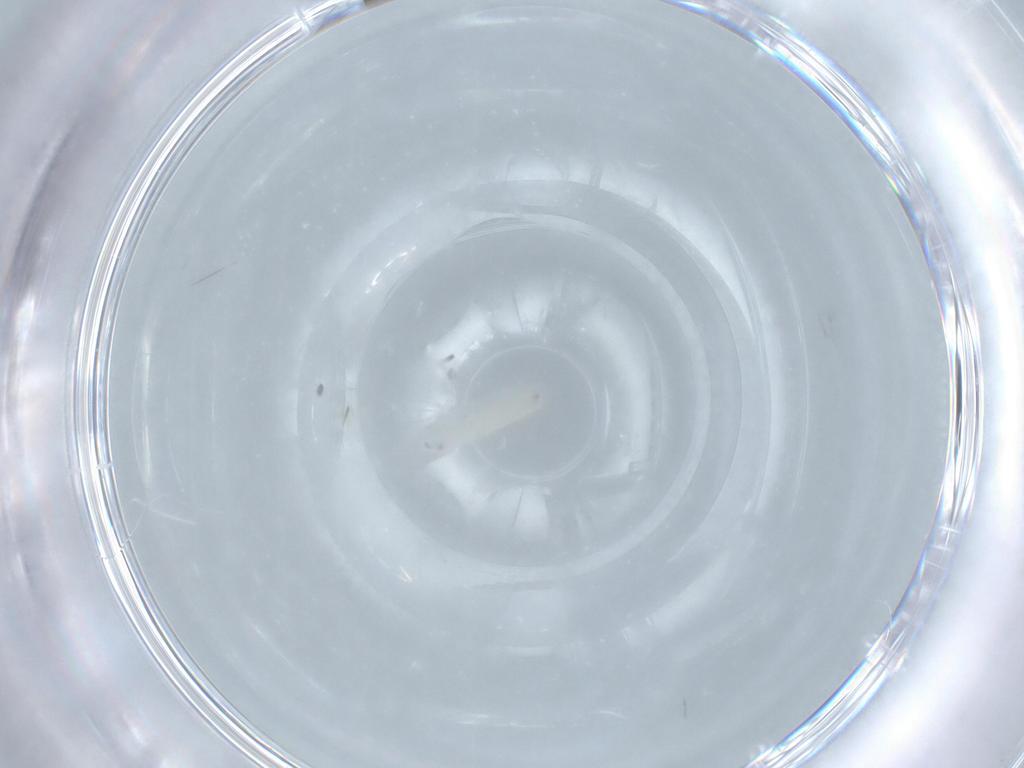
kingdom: Animalia
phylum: Arthropoda
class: Insecta
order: Diptera
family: Sarcophagidae
